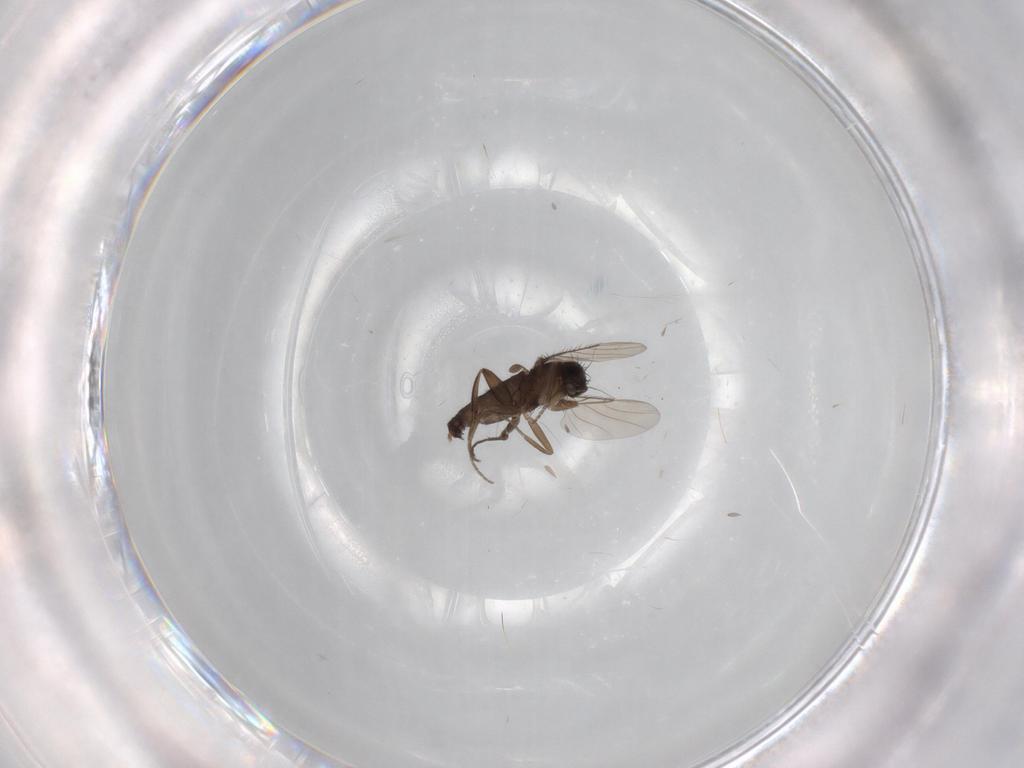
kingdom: Animalia
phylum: Arthropoda
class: Insecta
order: Diptera
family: Phoridae
